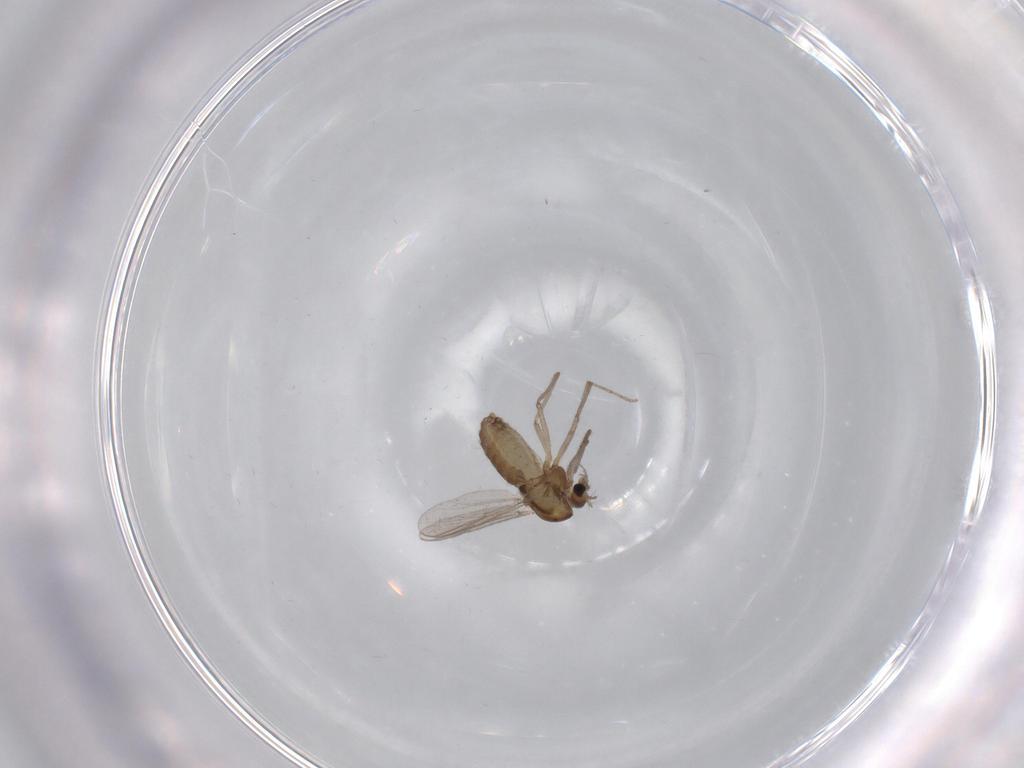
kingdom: Animalia
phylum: Arthropoda
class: Insecta
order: Diptera
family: Chironomidae
